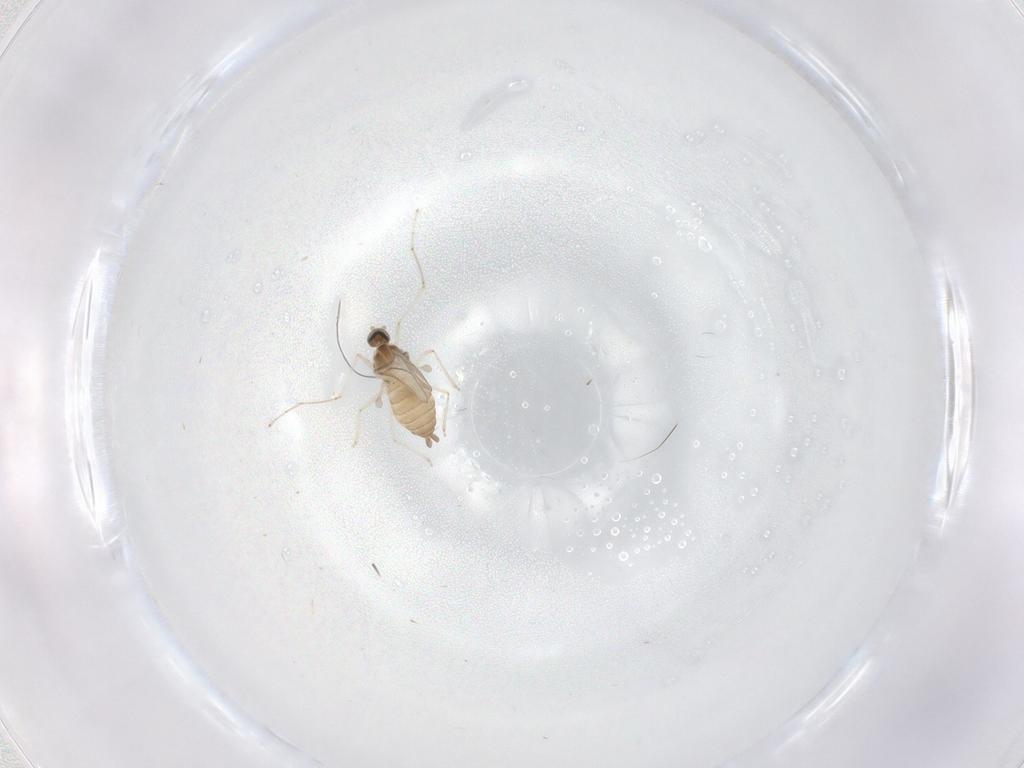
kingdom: Animalia
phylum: Arthropoda
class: Insecta
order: Diptera
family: Cecidomyiidae
